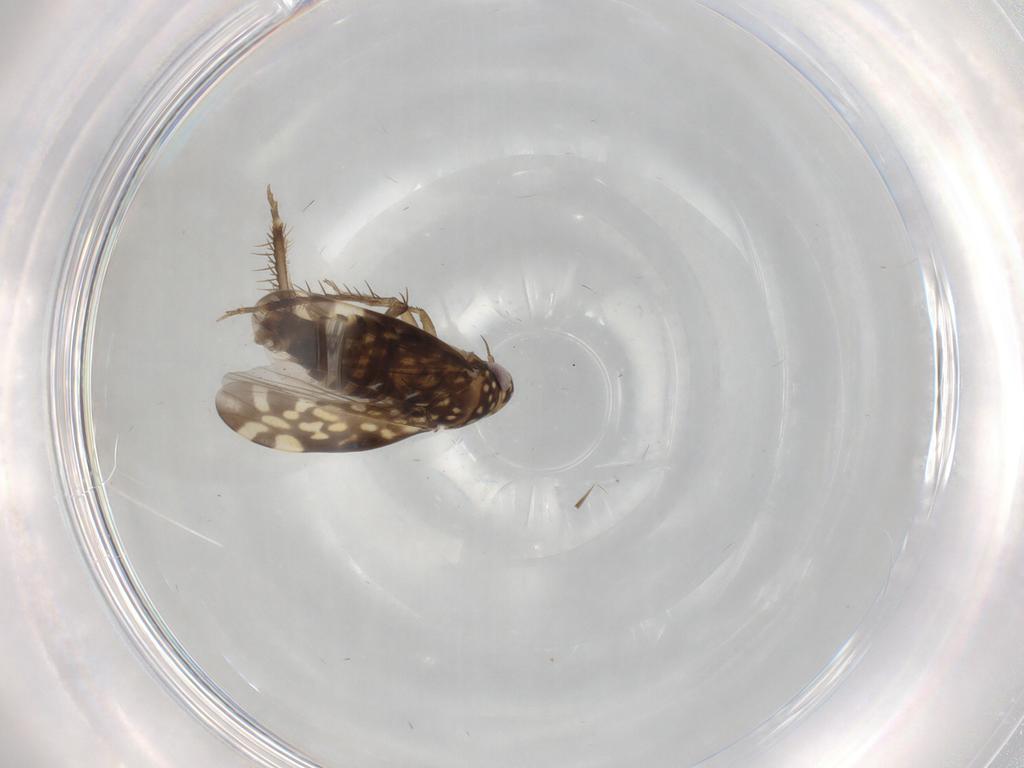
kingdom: Animalia
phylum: Arthropoda
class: Insecta
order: Hemiptera
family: Cicadellidae
